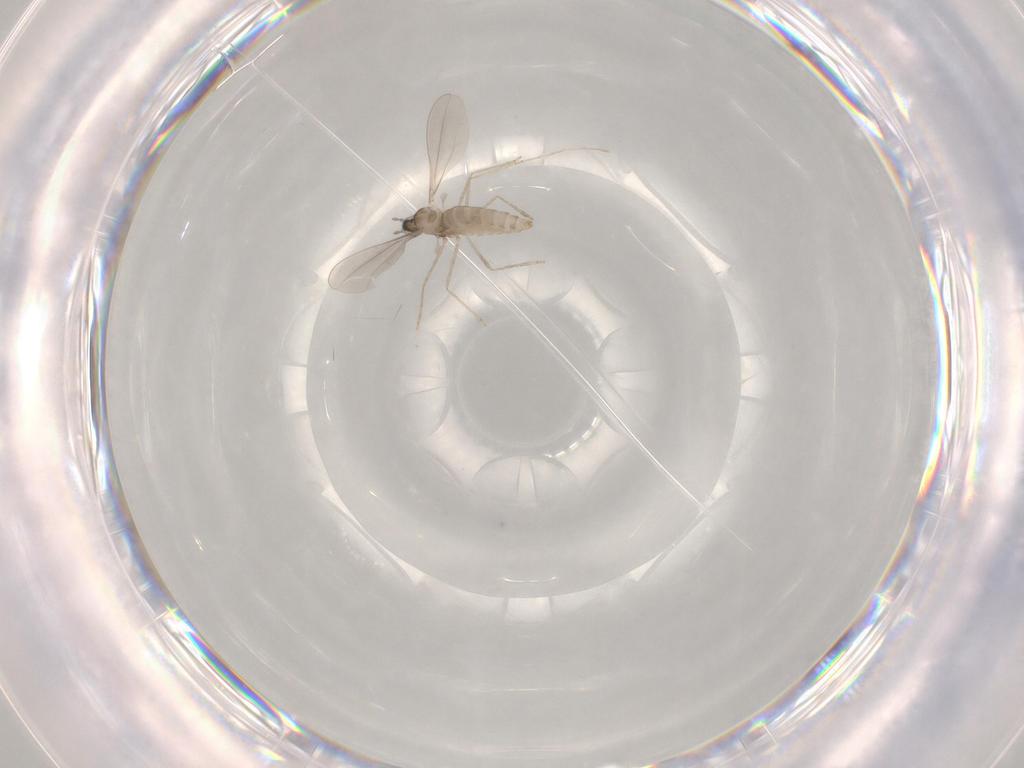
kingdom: Animalia
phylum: Arthropoda
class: Insecta
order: Diptera
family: Cecidomyiidae
